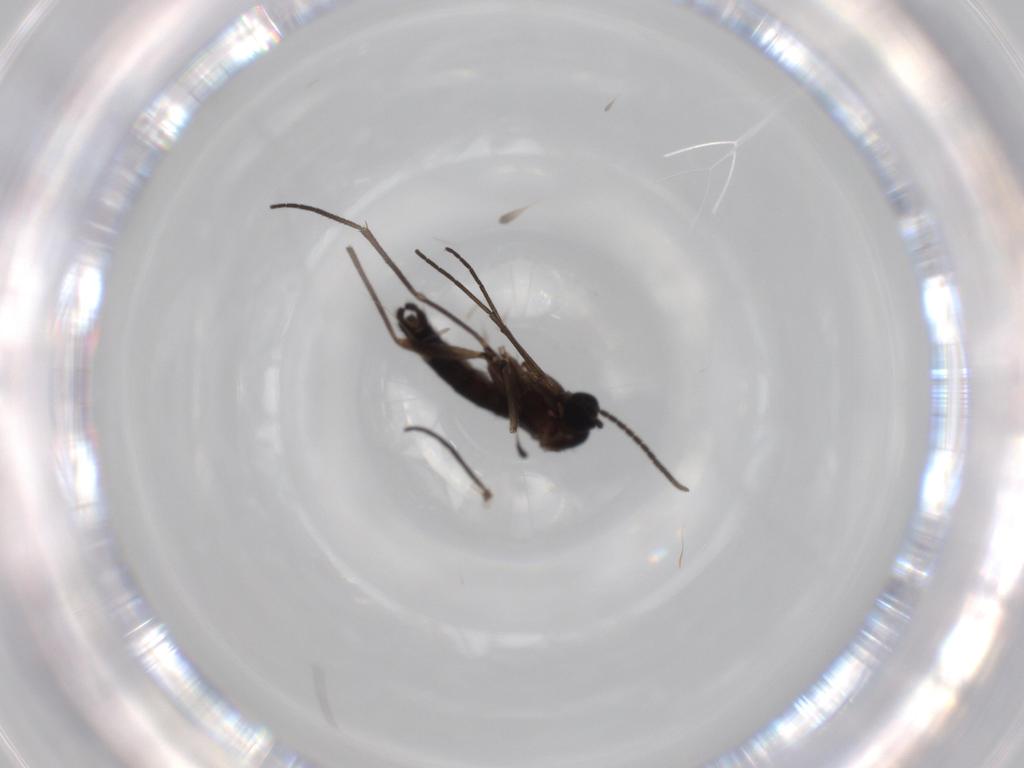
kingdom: Animalia
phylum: Arthropoda
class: Insecta
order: Diptera
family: Sciaridae
